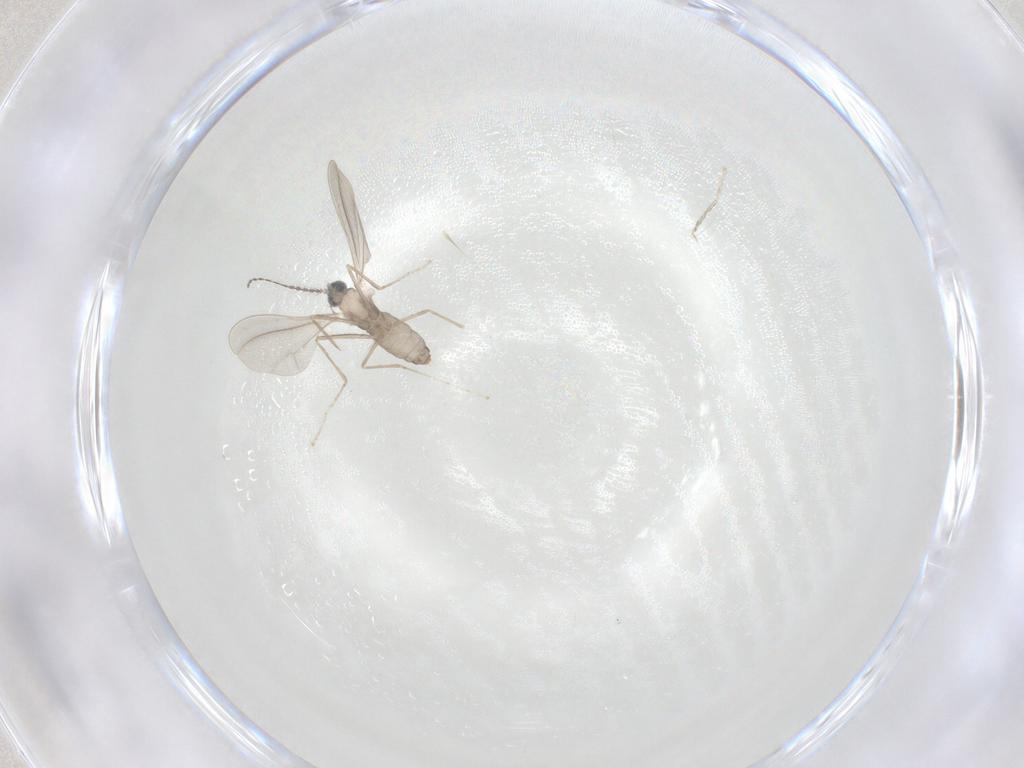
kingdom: Animalia
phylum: Arthropoda
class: Insecta
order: Diptera
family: Cecidomyiidae
